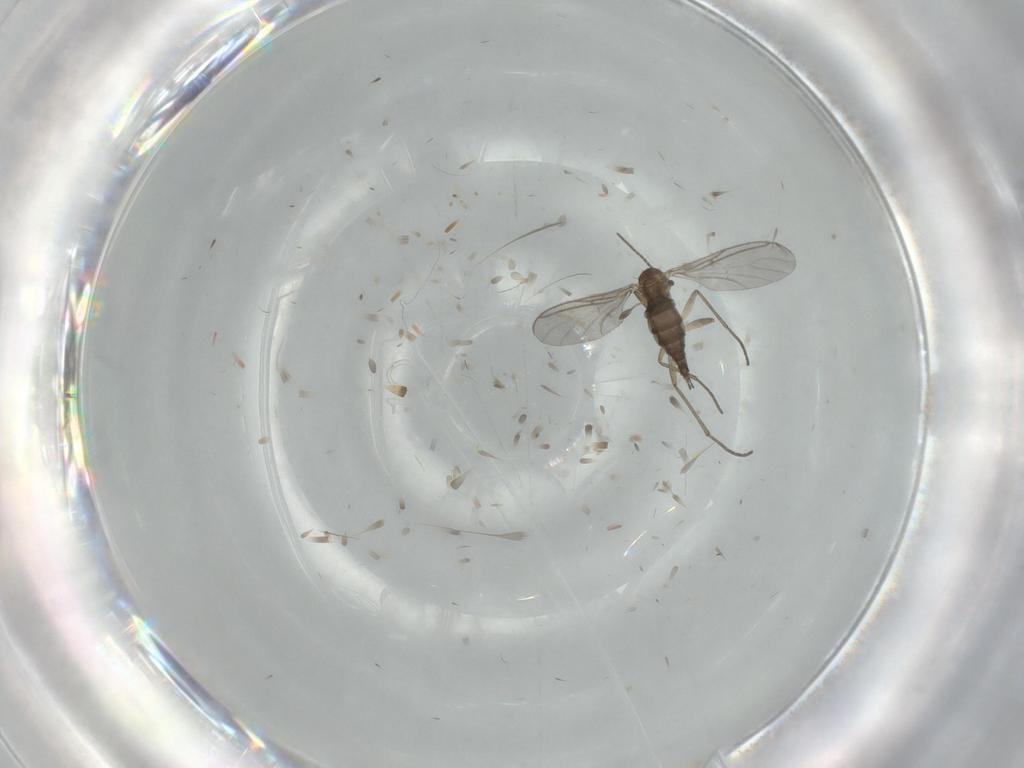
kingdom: Animalia
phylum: Arthropoda
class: Insecta
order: Diptera
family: Sciaridae
